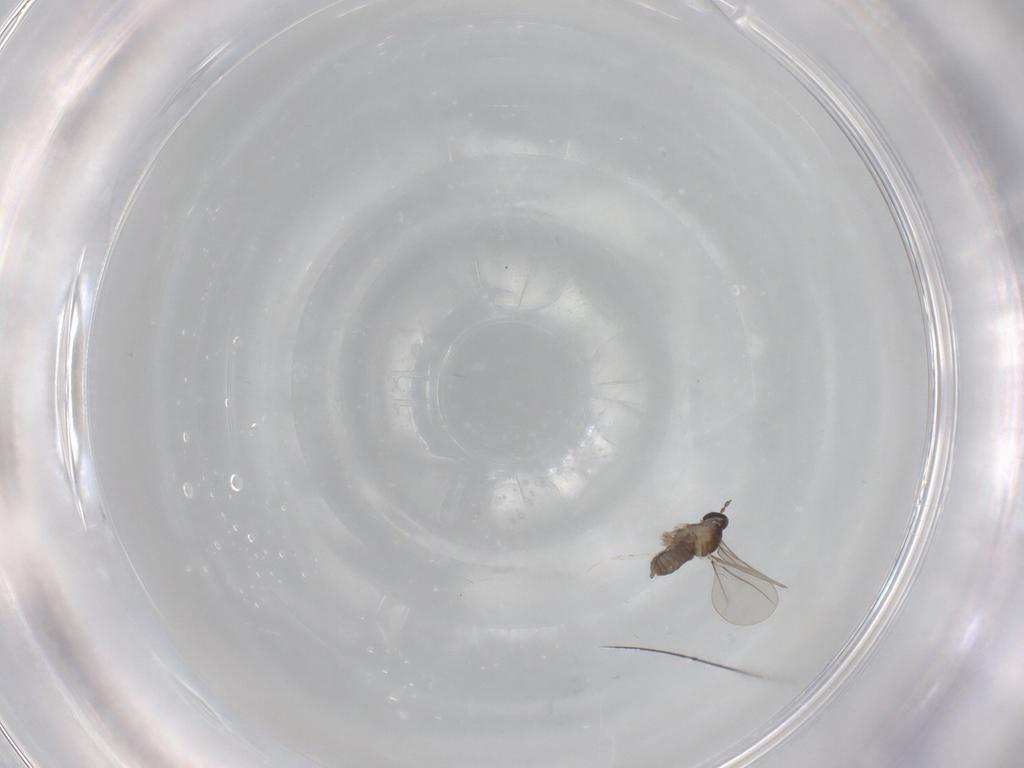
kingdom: Animalia
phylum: Arthropoda
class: Insecta
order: Diptera
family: Cecidomyiidae
